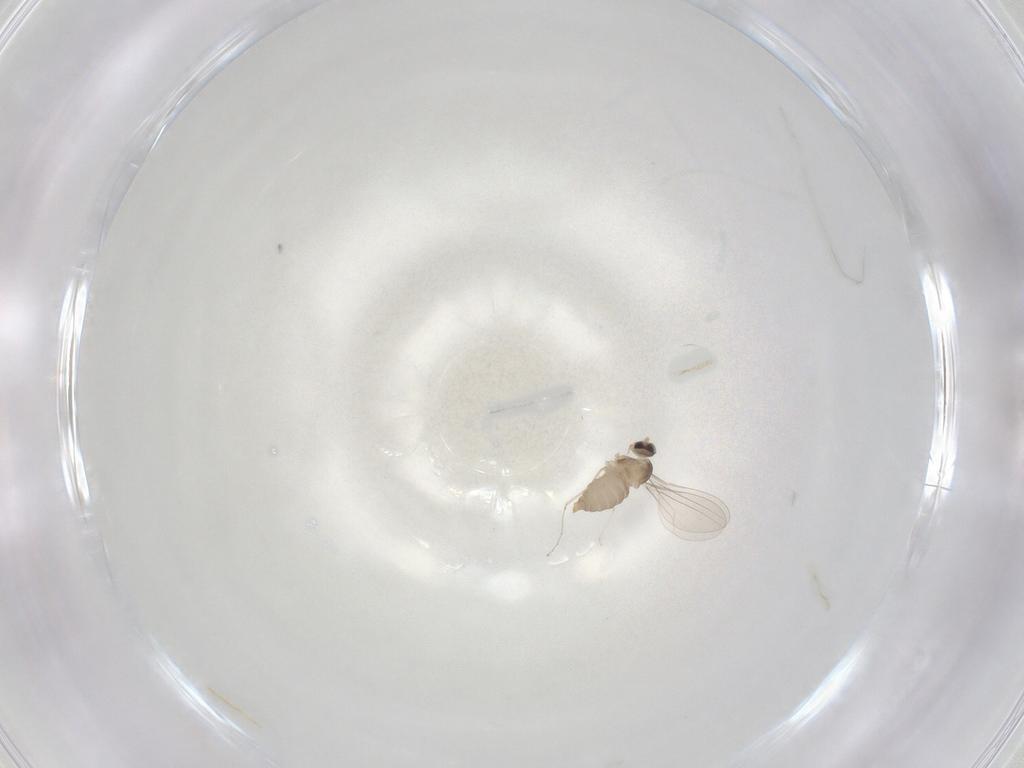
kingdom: Animalia
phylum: Arthropoda
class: Insecta
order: Diptera
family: Cecidomyiidae
